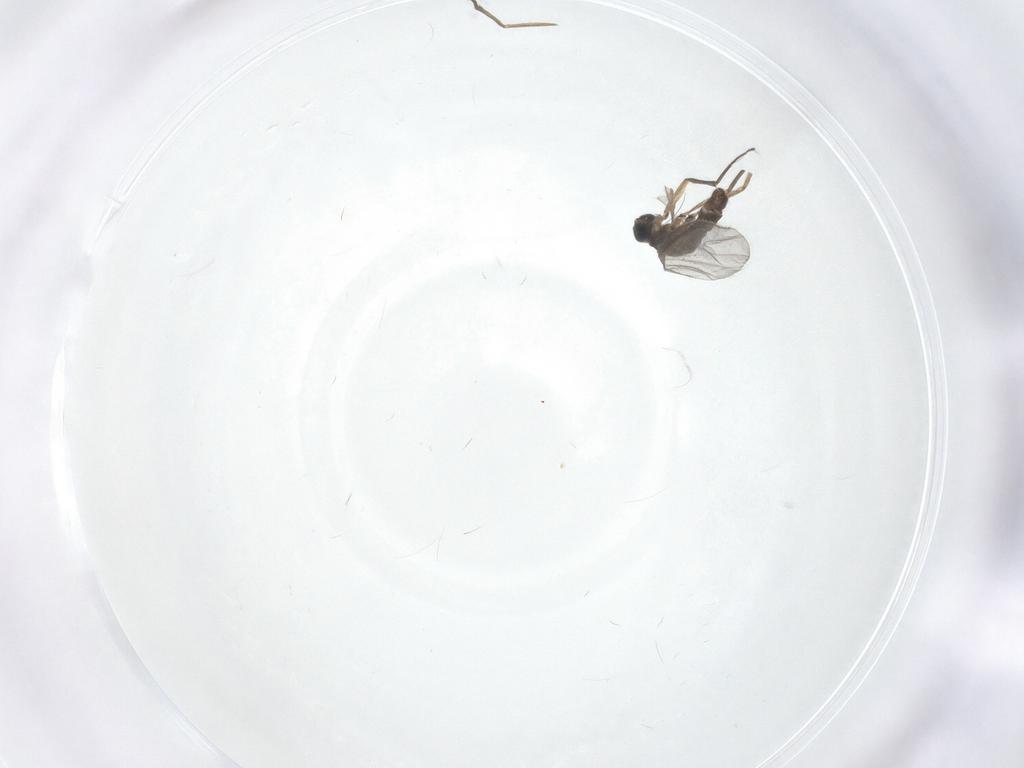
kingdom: Animalia
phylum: Arthropoda
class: Insecta
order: Diptera
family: Sciaridae
